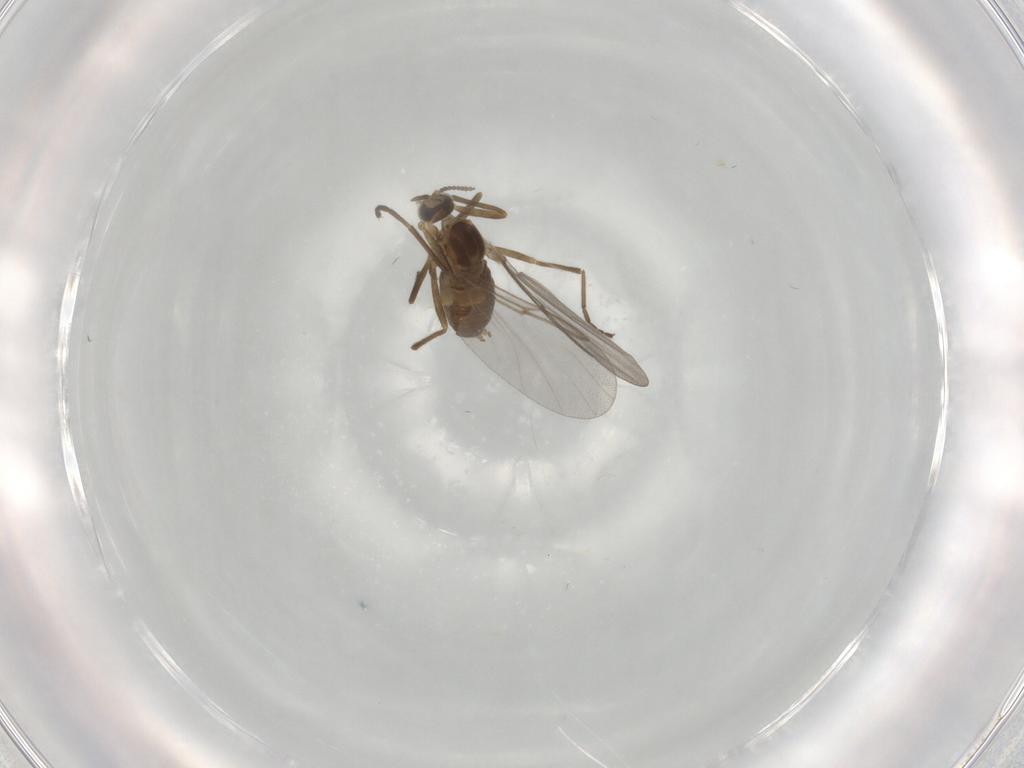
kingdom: Animalia
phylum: Arthropoda
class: Insecta
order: Diptera
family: Cecidomyiidae
